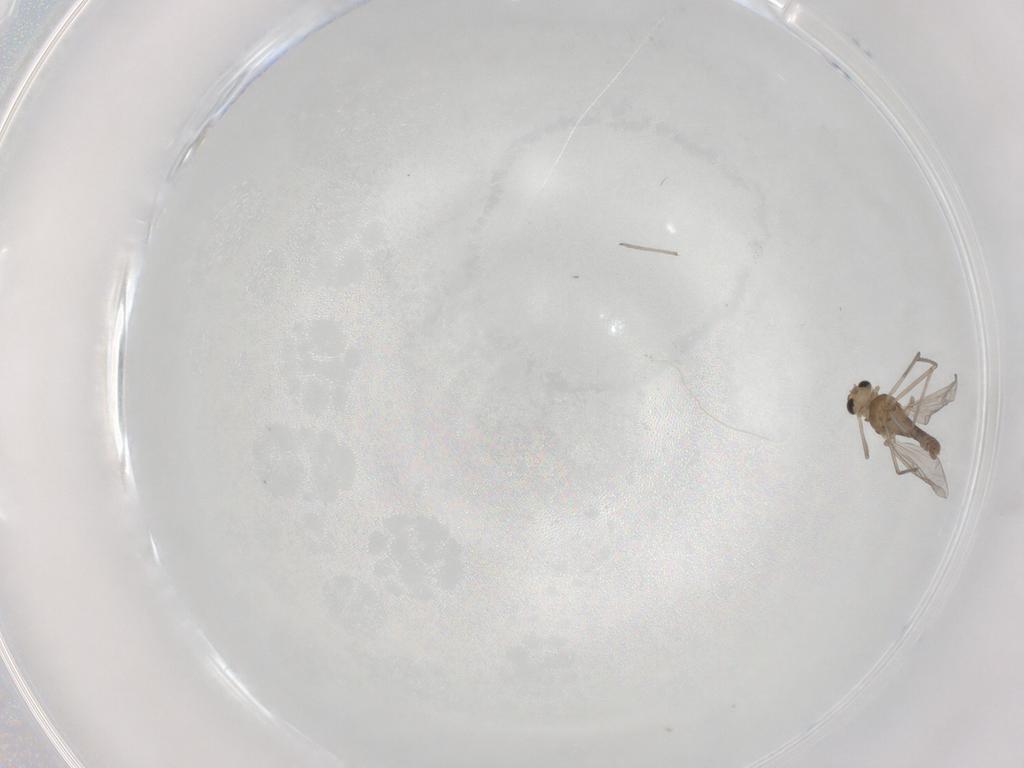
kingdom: Animalia
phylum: Arthropoda
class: Insecta
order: Diptera
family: Chironomidae
